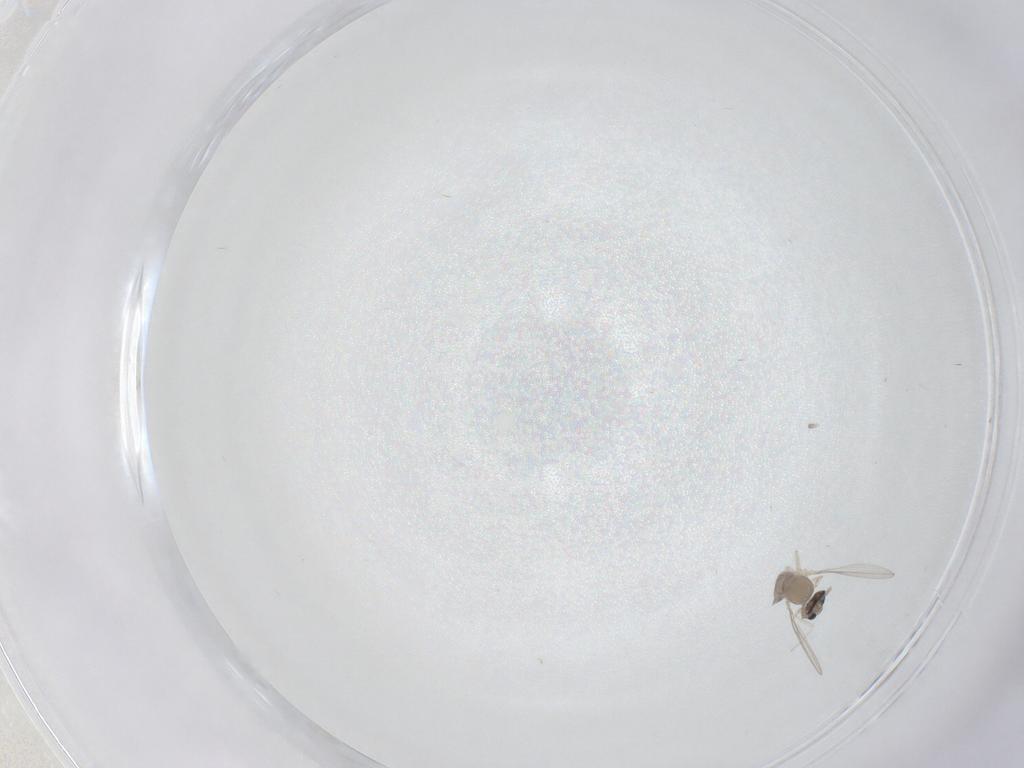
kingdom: Animalia
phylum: Arthropoda
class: Insecta
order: Diptera
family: Cecidomyiidae
